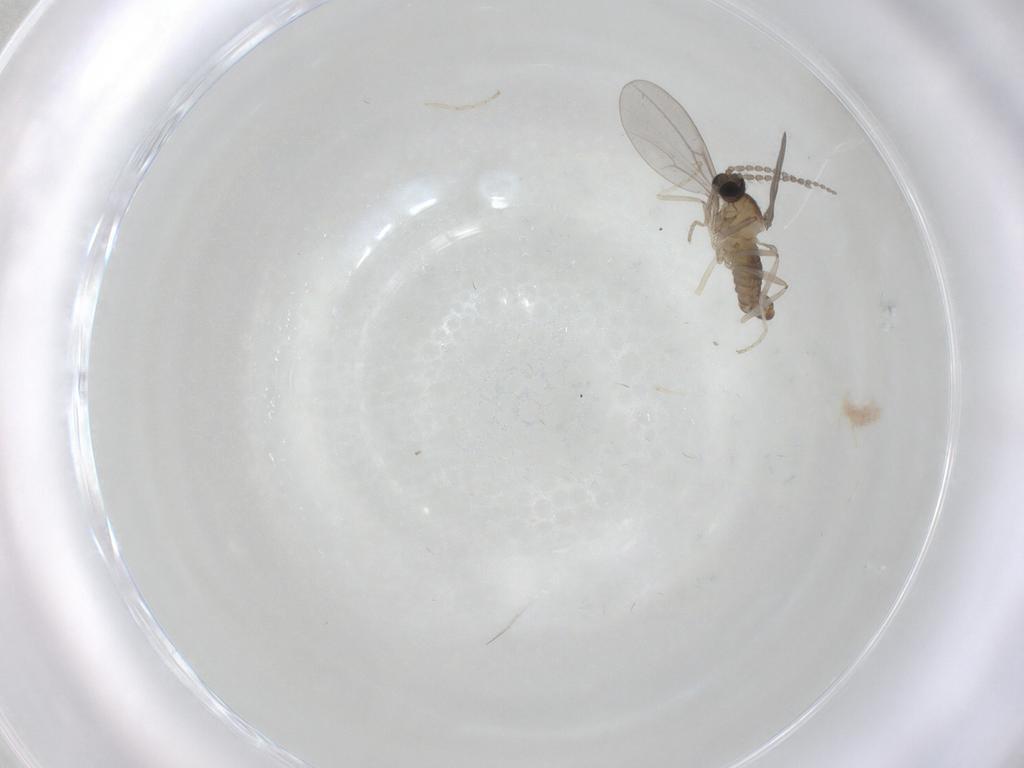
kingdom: Animalia
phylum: Arthropoda
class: Insecta
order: Diptera
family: Cecidomyiidae
